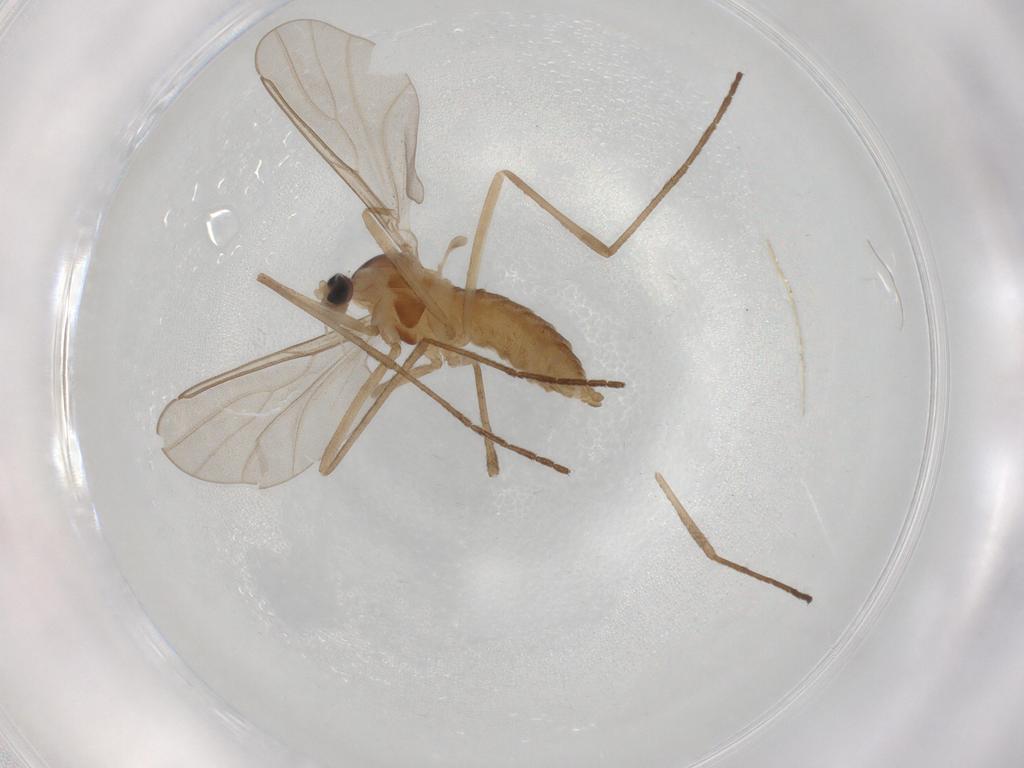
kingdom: Animalia
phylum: Arthropoda
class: Insecta
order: Diptera
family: Cecidomyiidae
